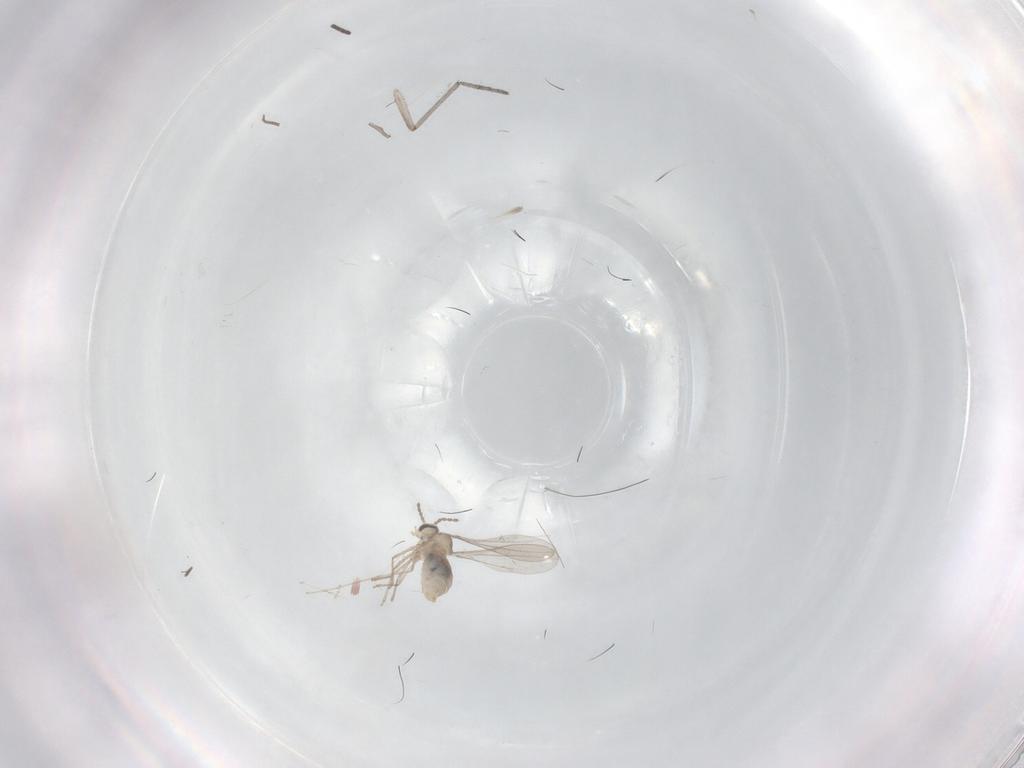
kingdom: Animalia
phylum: Arthropoda
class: Insecta
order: Diptera
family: Chironomidae
